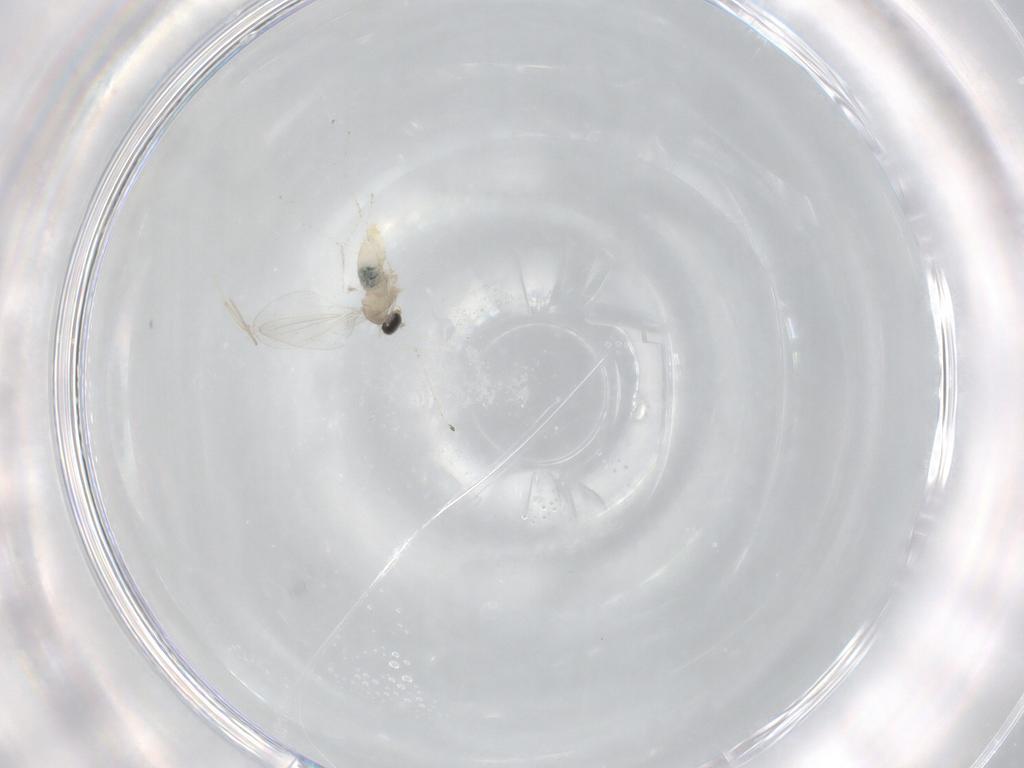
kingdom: Animalia
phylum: Arthropoda
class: Insecta
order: Diptera
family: Cecidomyiidae
